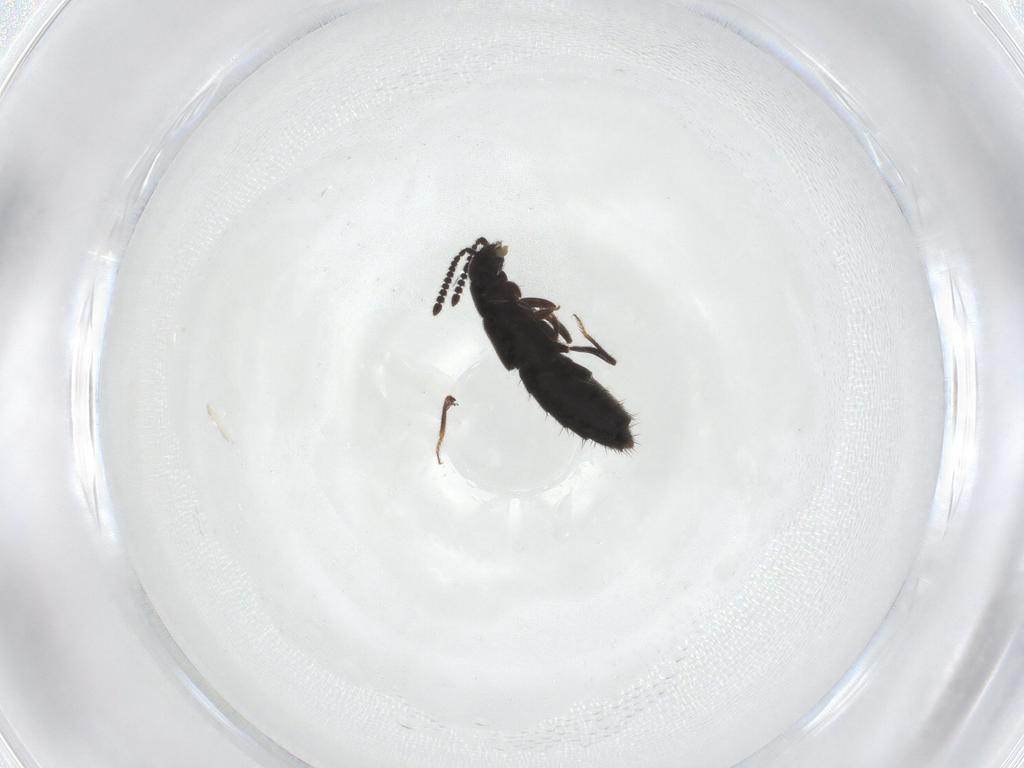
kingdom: Animalia
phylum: Arthropoda
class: Insecta
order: Coleoptera
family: Staphylinidae
